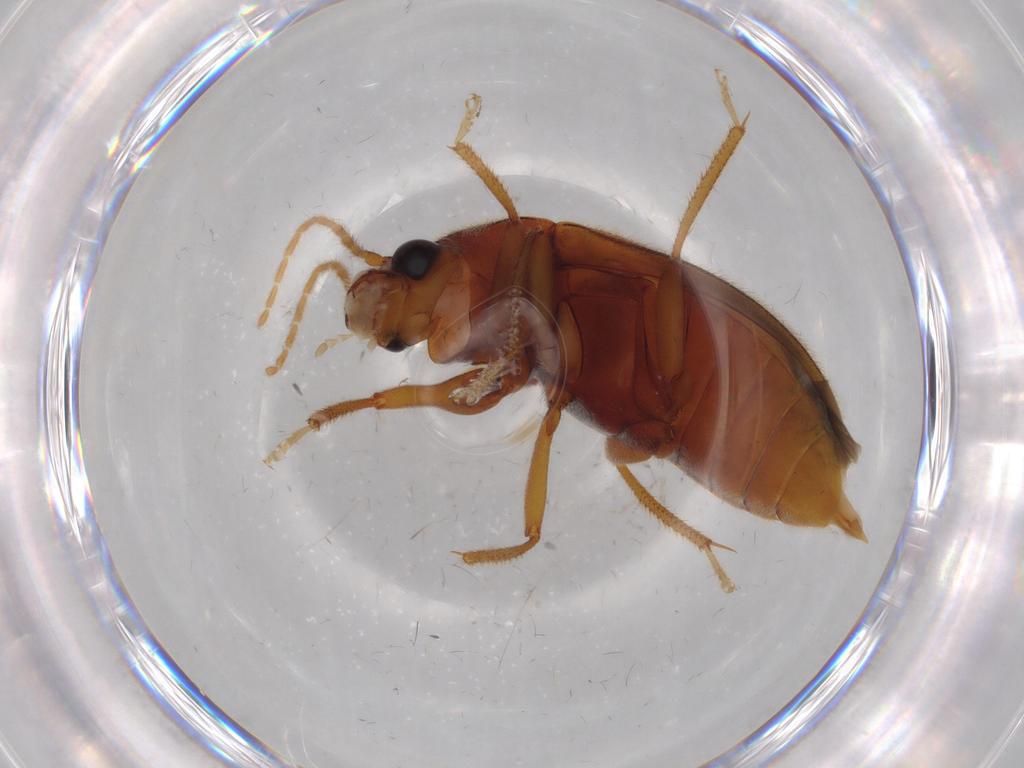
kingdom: Animalia
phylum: Arthropoda
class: Insecta
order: Coleoptera
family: Ptilodactylidae
